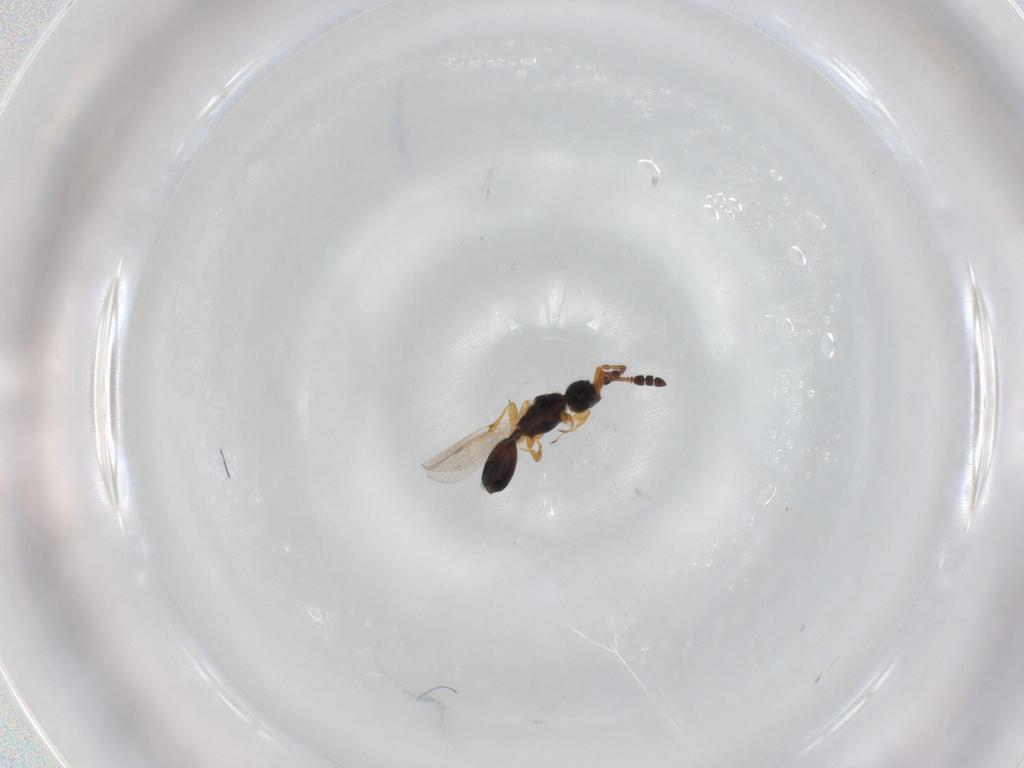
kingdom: Animalia
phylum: Arthropoda
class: Insecta
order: Hymenoptera
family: Diapriidae
